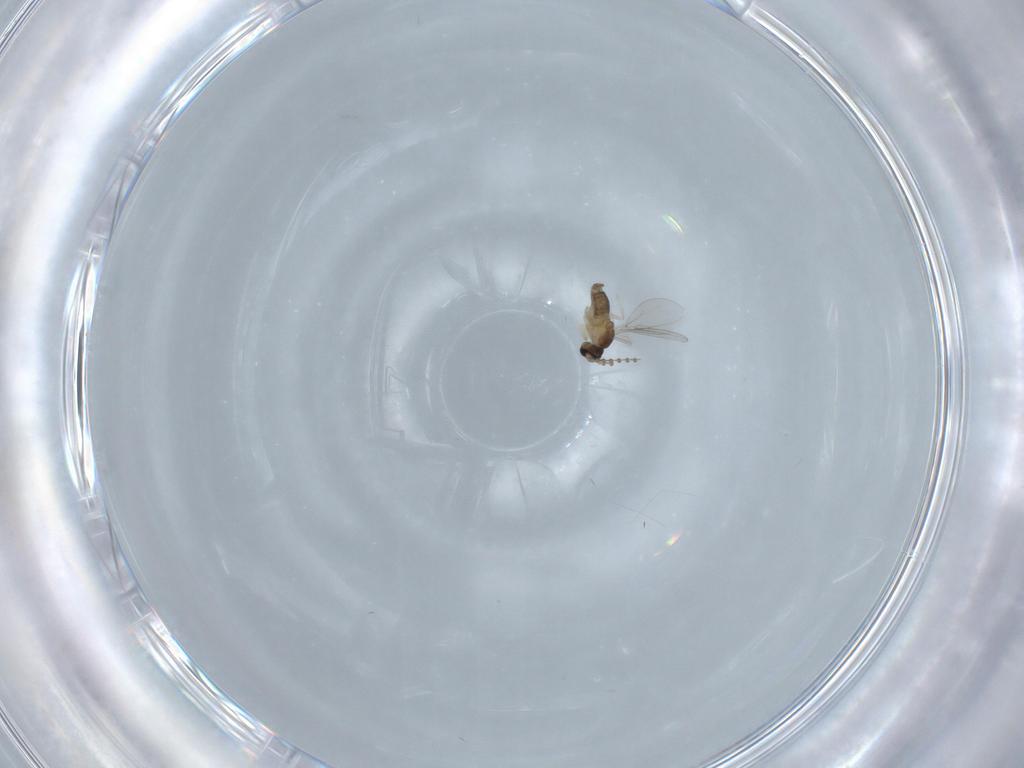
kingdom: Animalia
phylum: Arthropoda
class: Insecta
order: Diptera
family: Cecidomyiidae
